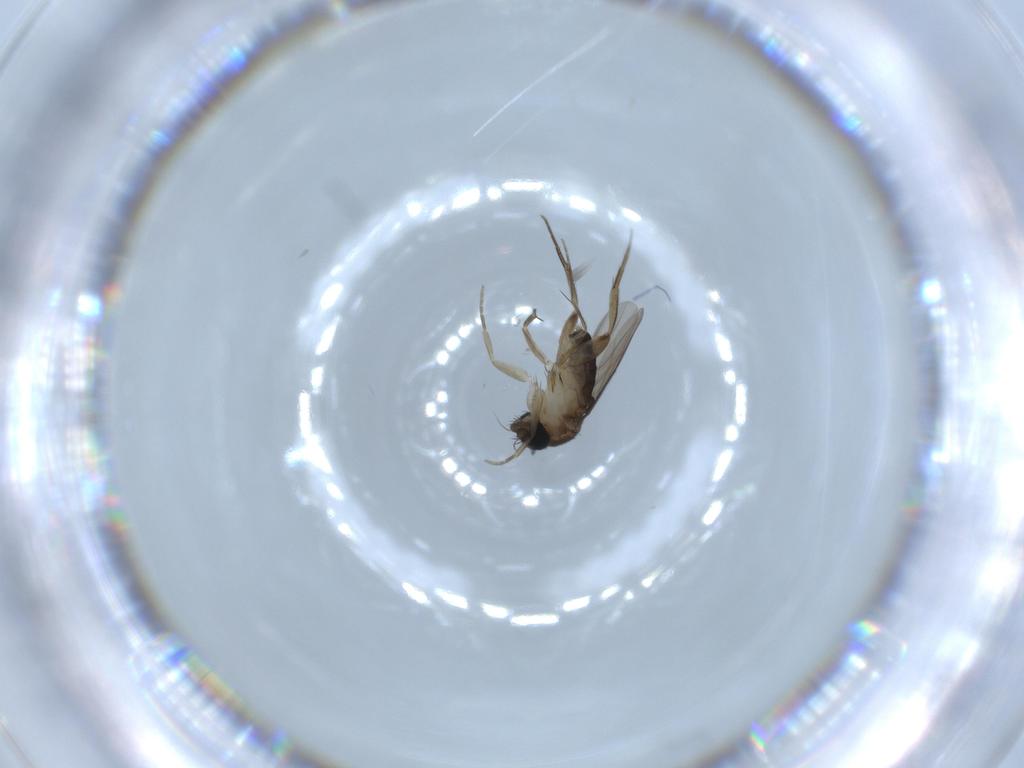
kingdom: Animalia
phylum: Arthropoda
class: Insecta
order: Diptera
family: Phoridae
